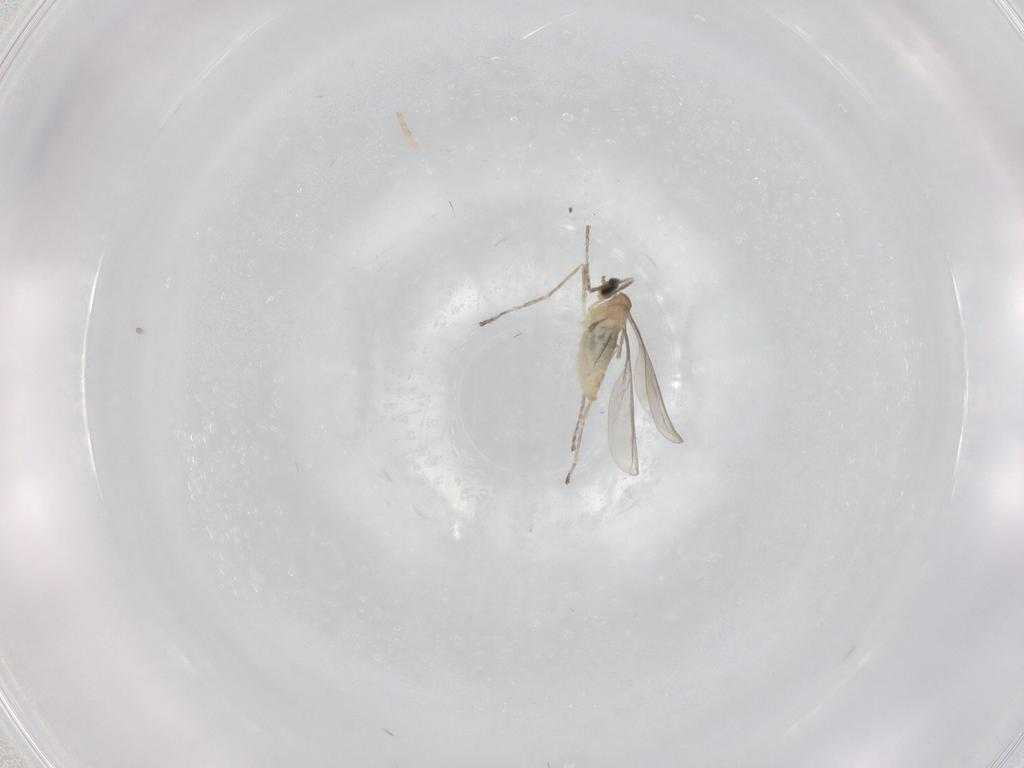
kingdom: Animalia
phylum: Arthropoda
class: Insecta
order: Diptera
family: Cecidomyiidae
